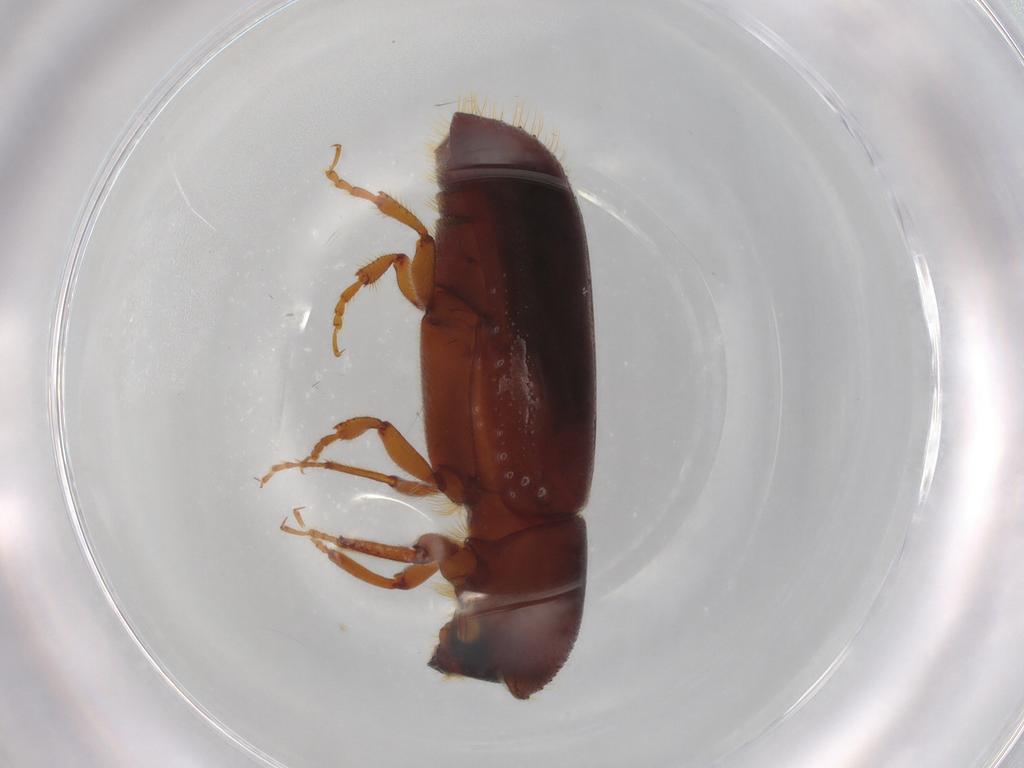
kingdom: Animalia
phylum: Arthropoda
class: Insecta
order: Coleoptera
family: Curculionidae
